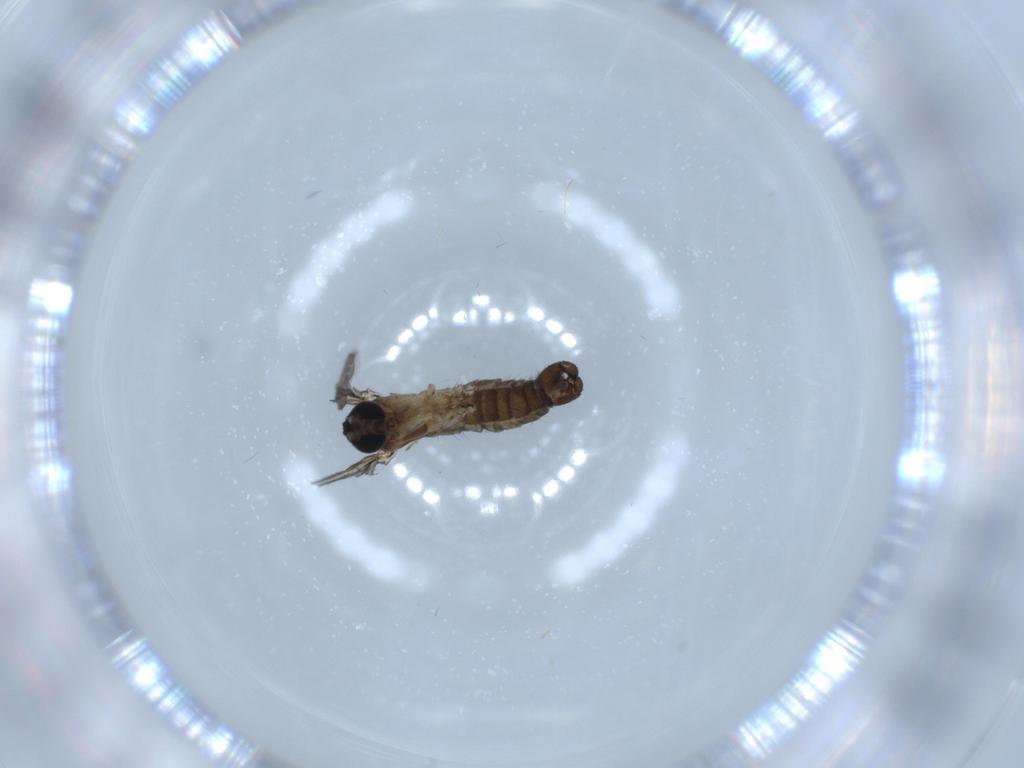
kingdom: Animalia
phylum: Arthropoda
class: Insecta
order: Diptera
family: Sciaridae
